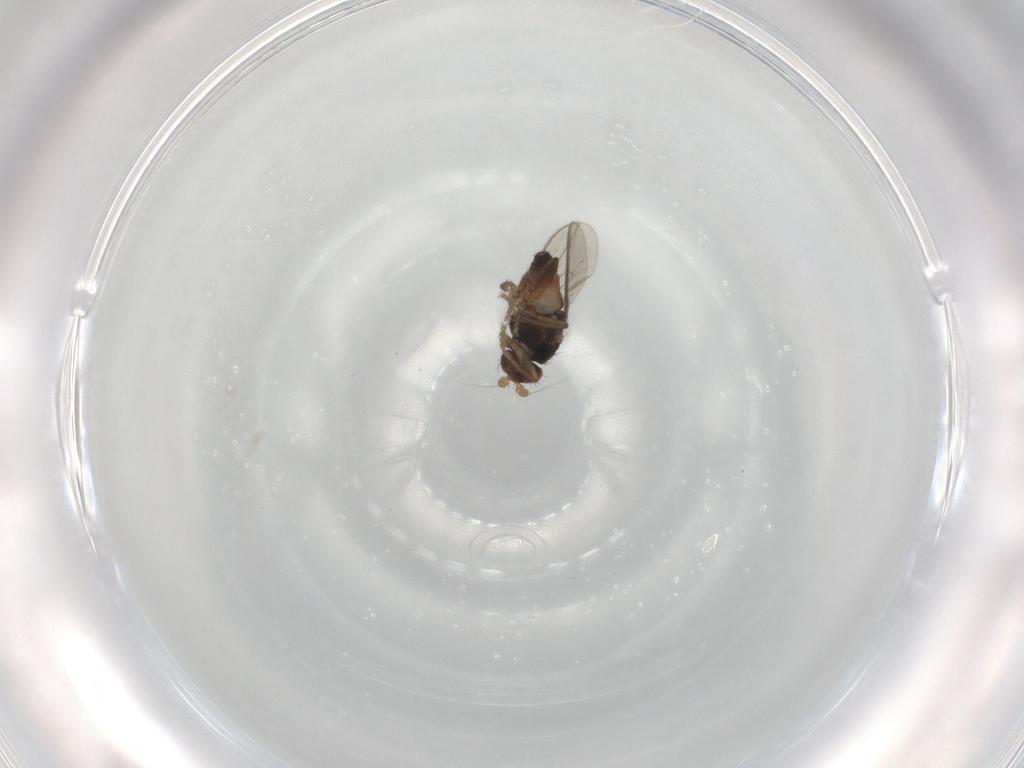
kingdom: Animalia
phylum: Arthropoda
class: Insecta
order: Diptera
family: Sphaeroceridae
